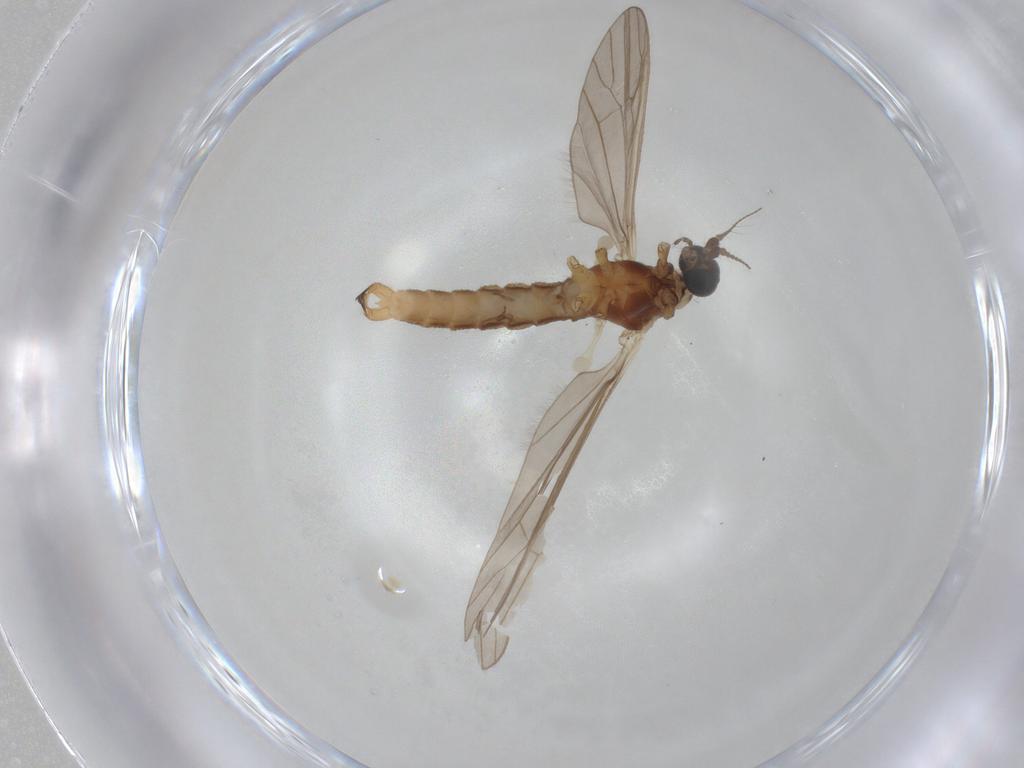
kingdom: Animalia
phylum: Arthropoda
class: Insecta
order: Diptera
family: Limoniidae
